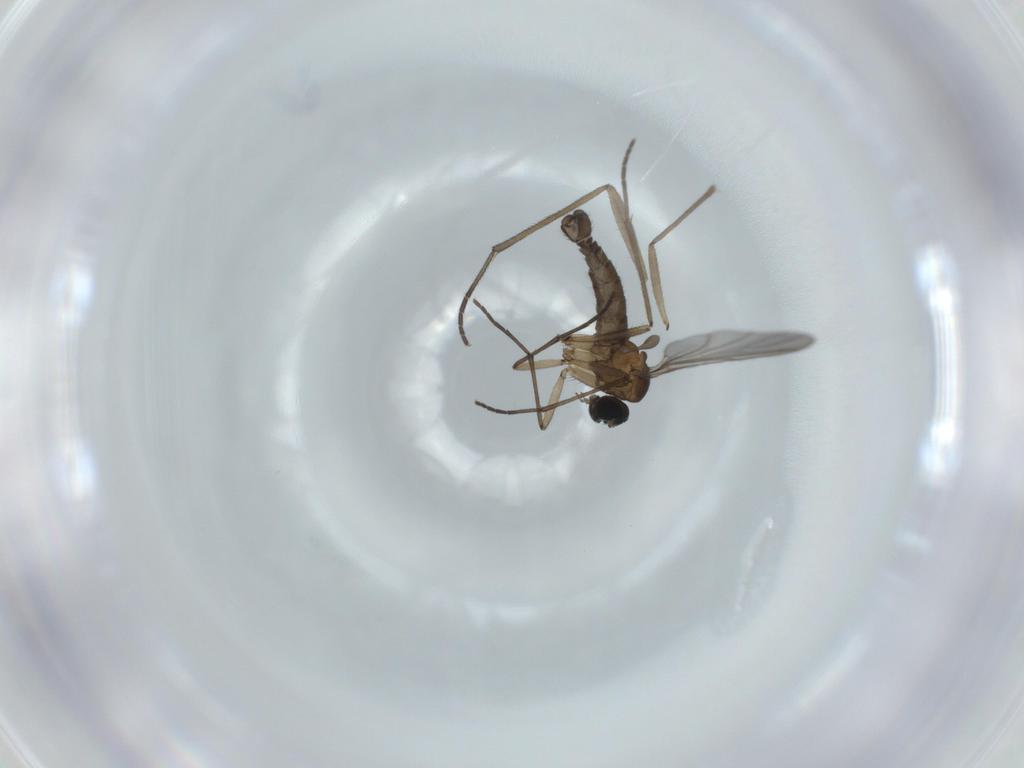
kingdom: Animalia
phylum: Arthropoda
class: Insecta
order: Diptera
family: Sciaridae
